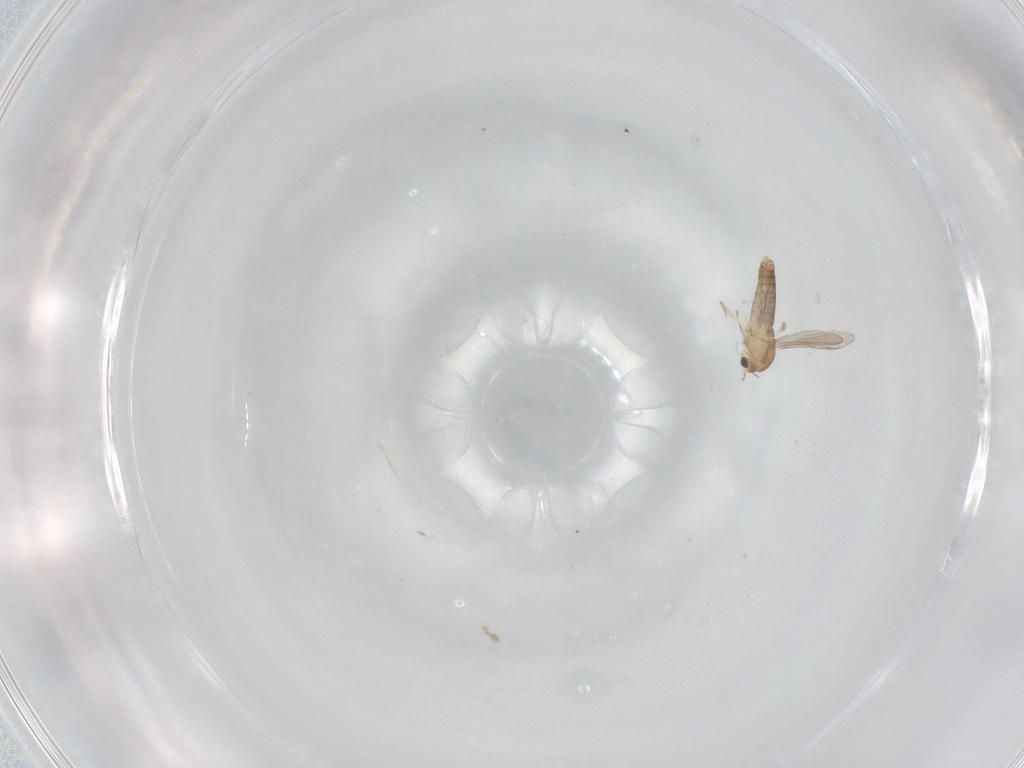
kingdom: Animalia
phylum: Arthropoda
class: Insecta
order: Diptera
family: Chironomidae
